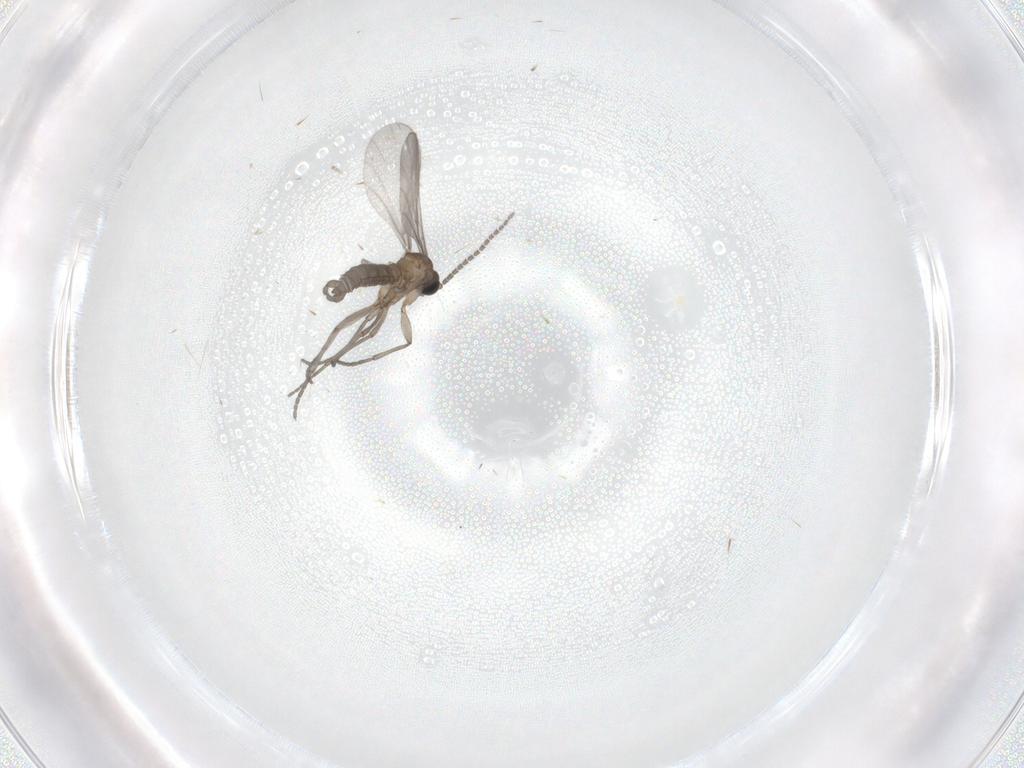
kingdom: Animalia
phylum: Arthropoda
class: Insecta
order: Diptera
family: Sciaridae
